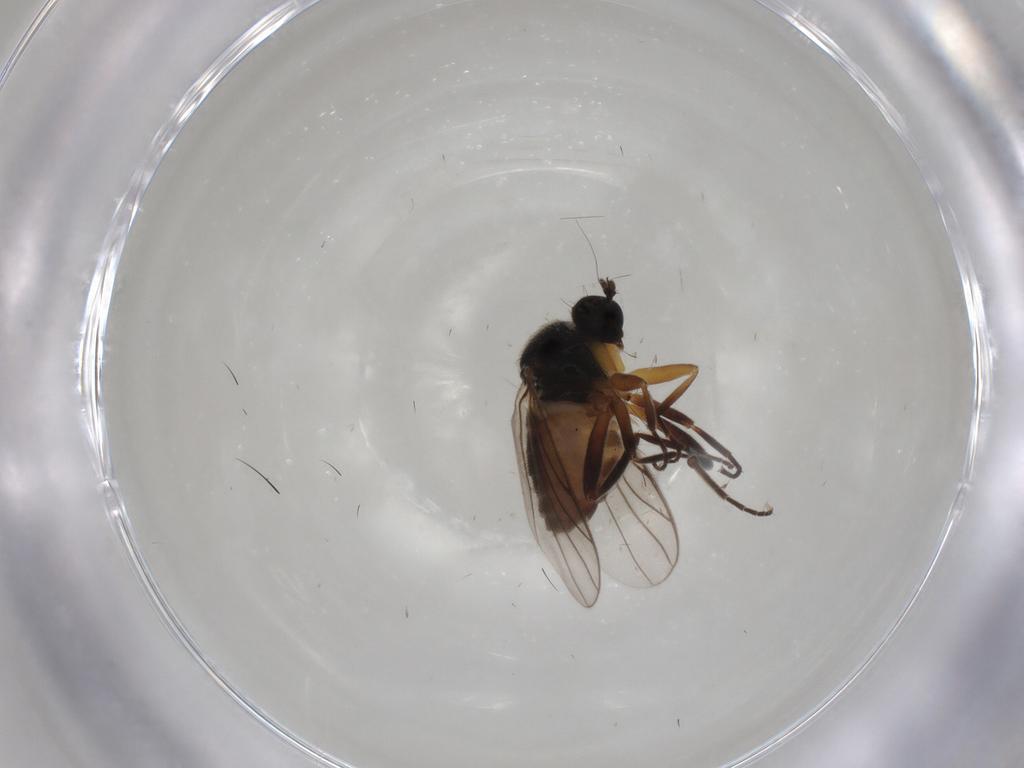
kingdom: Animalia
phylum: Arthropoda
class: Insecta
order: Diptera
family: Hybotidae
